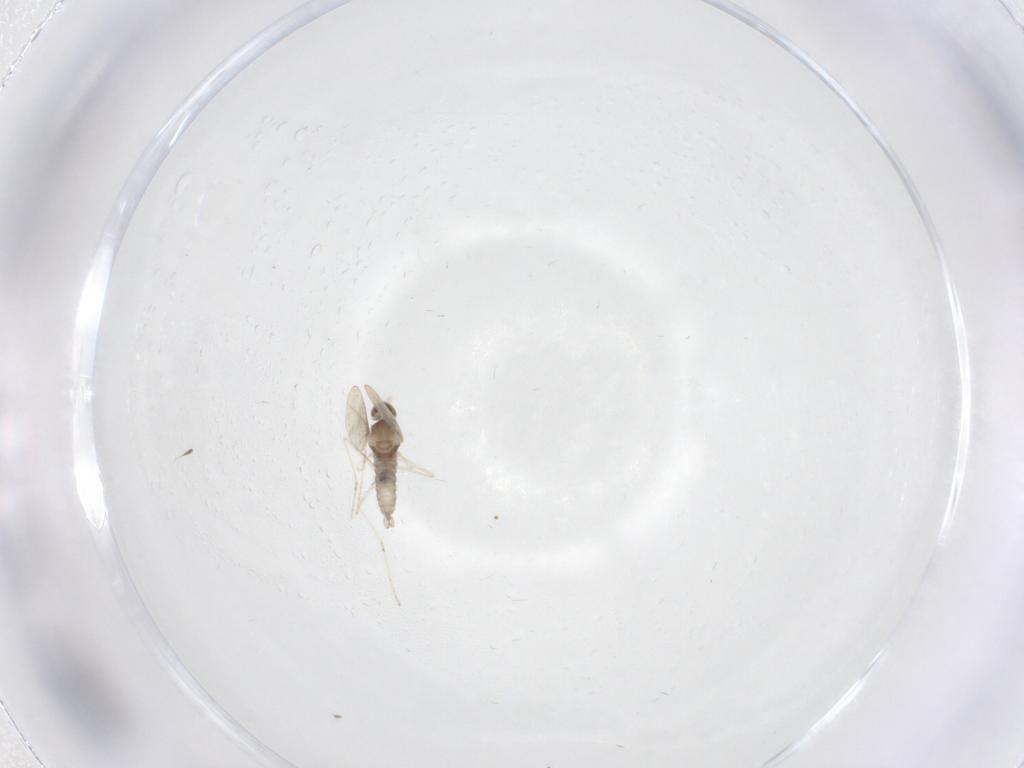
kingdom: Animalia
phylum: Arthropoda
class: Insecta
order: Diptera
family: Cecidomyiidae
